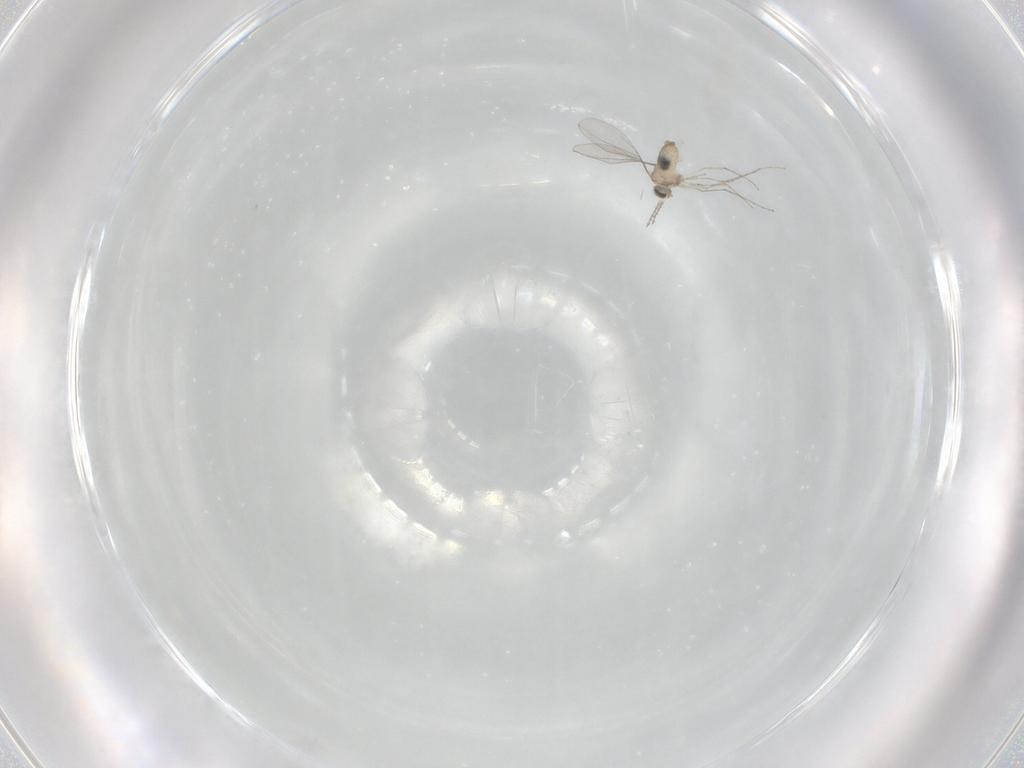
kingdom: Animalia
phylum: Arthropoda
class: Insecta
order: Diptera
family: Cecidomyiidae
